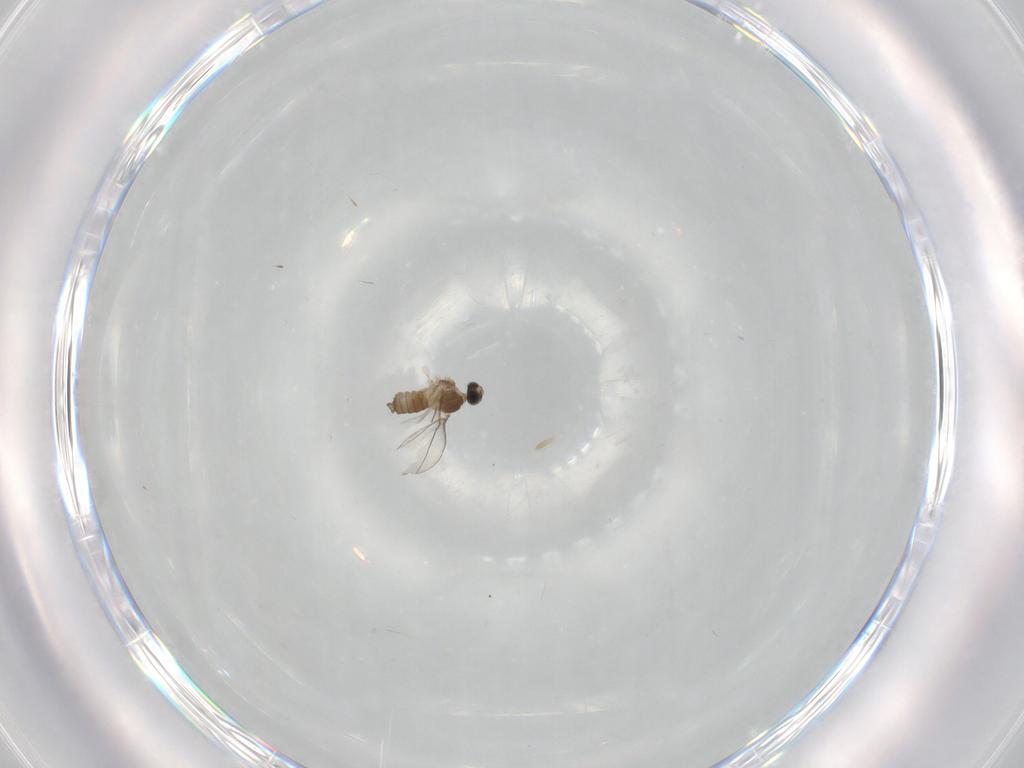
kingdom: Animalia
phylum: Arthropoda
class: Insecta
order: Diptera
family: Cecidomyiidae
